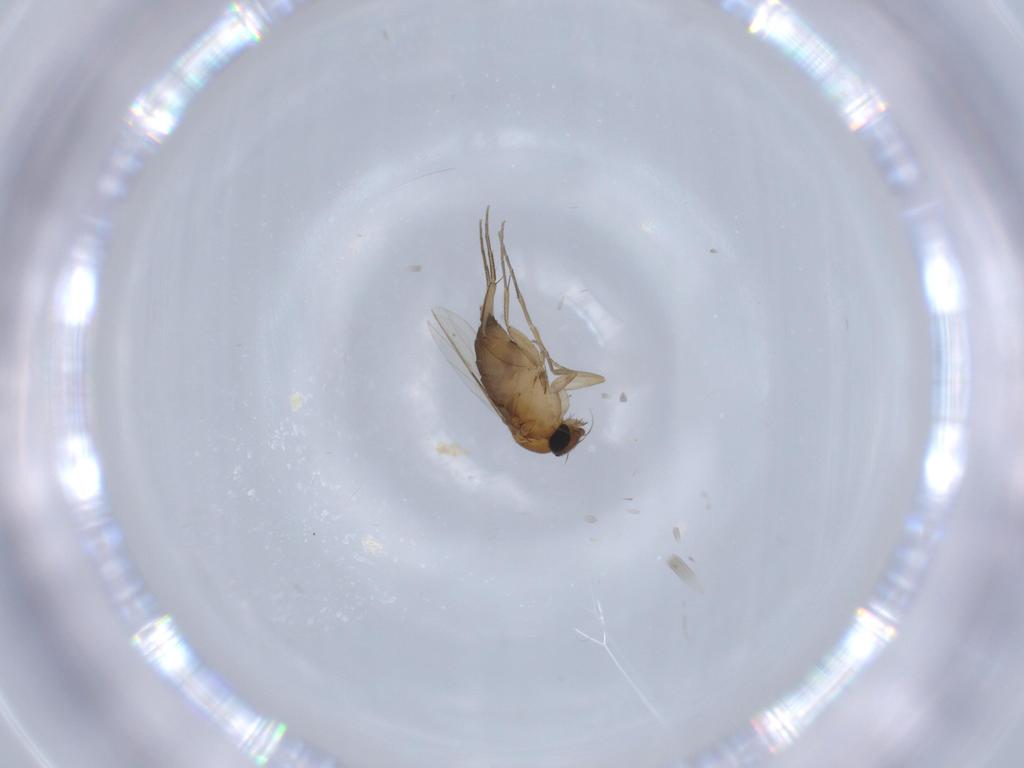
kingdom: Animalia
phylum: Arthropoda
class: Insecta
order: Diptera
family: Phoridae
